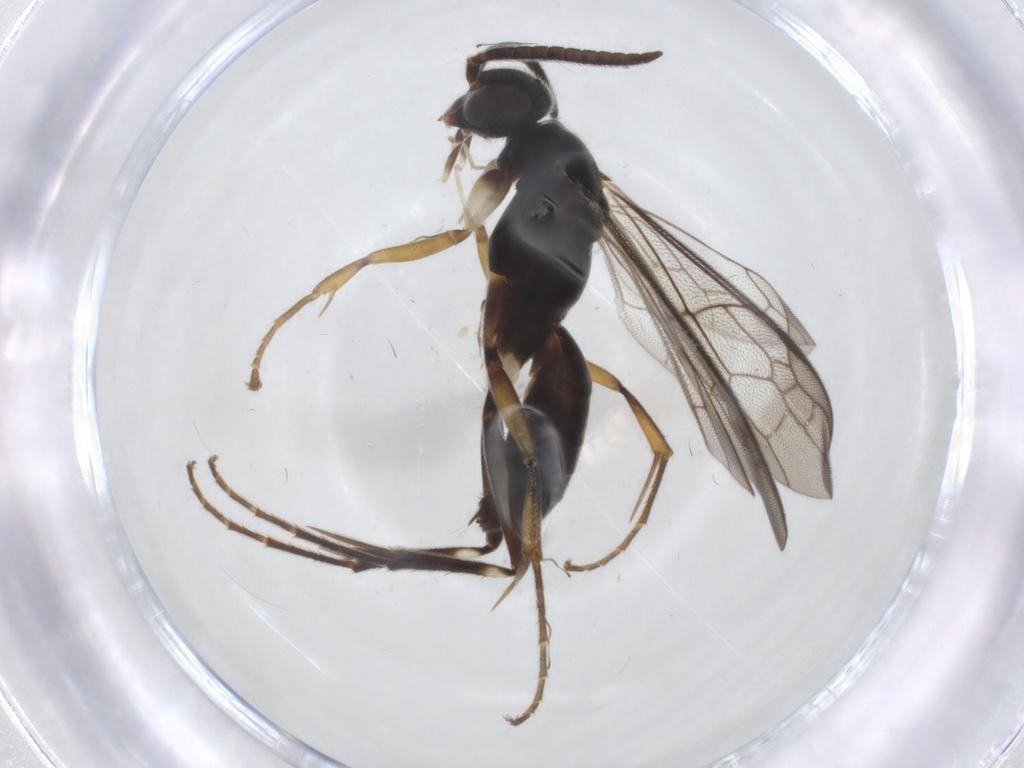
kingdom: Animalia
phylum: Arthropoda
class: Insecta
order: Hymenoptera
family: Pompilidae
